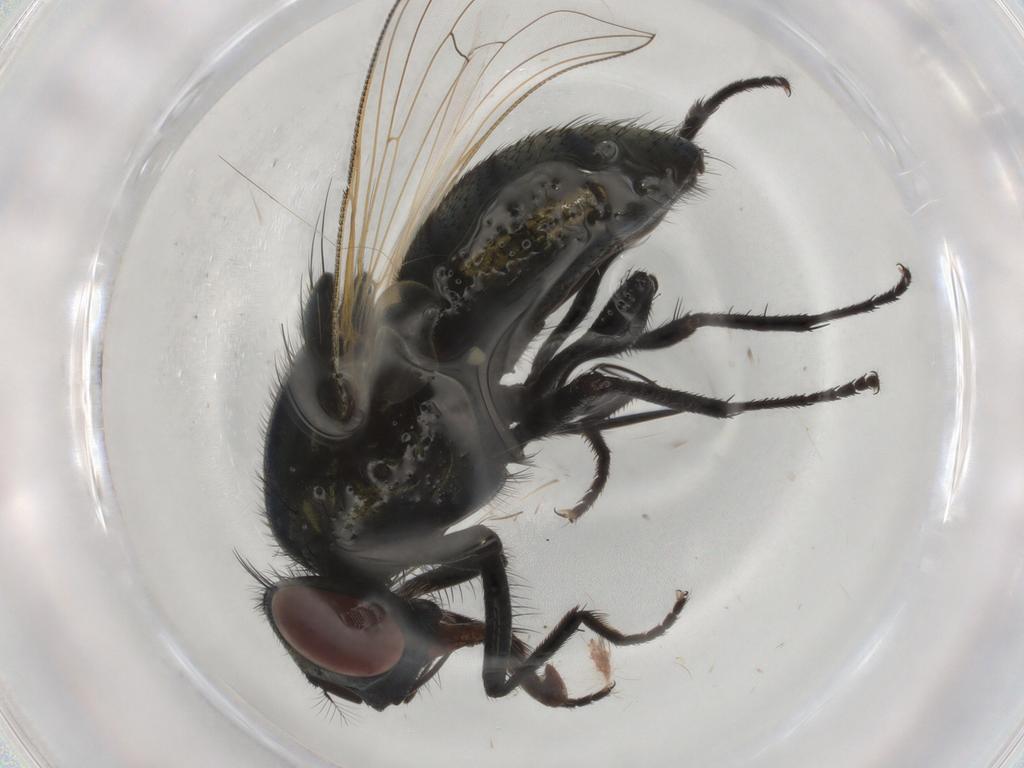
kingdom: Animalia
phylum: Arthropoda
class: Insecta
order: Diptera
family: Muscidae
